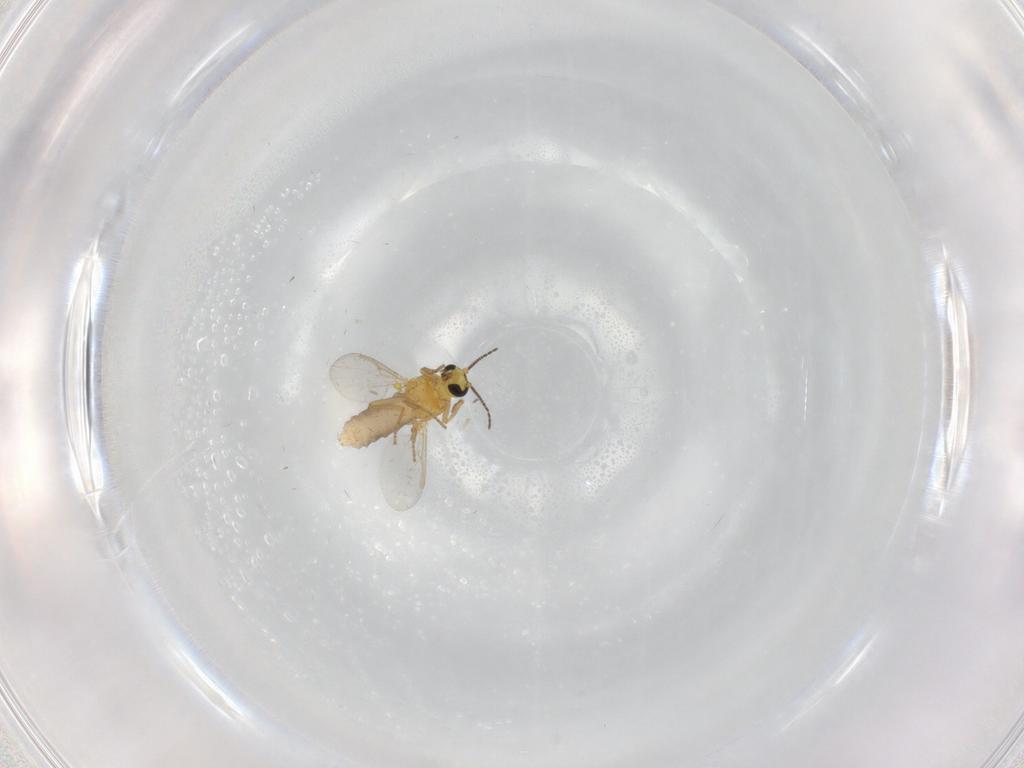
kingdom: Animalia
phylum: Arthropoda
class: Insecta
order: Diptera
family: Ceratopogonidae
